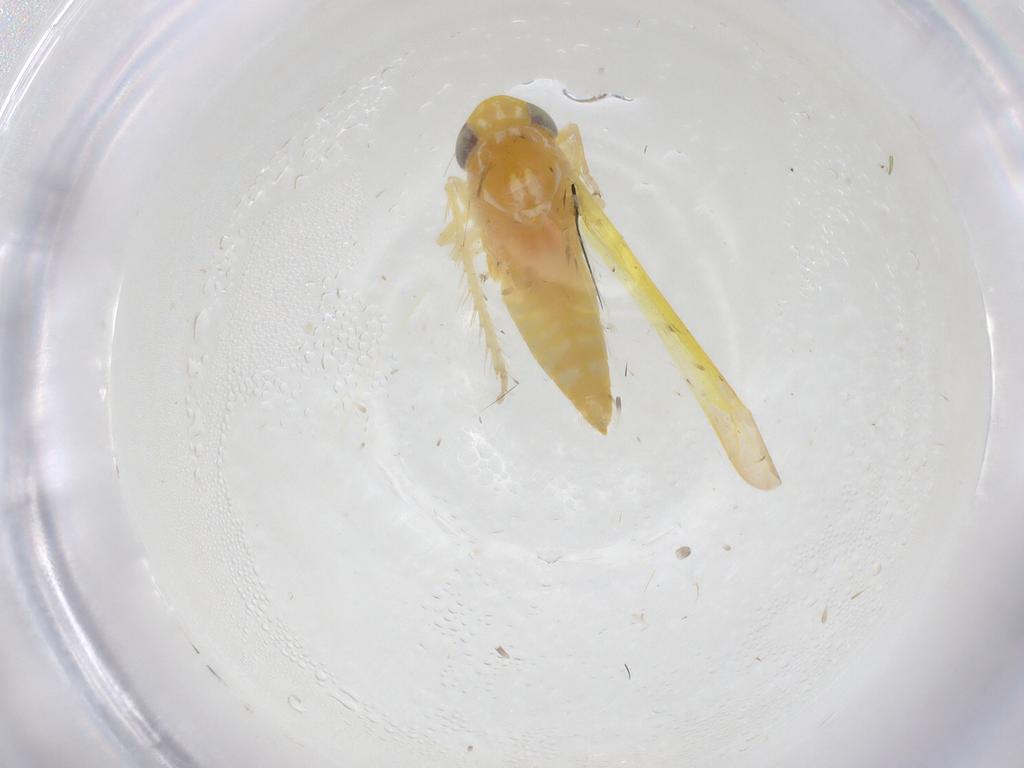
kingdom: Animalia
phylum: Arthropoda
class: Insecta
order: Hemiptera
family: Cicadellidae
